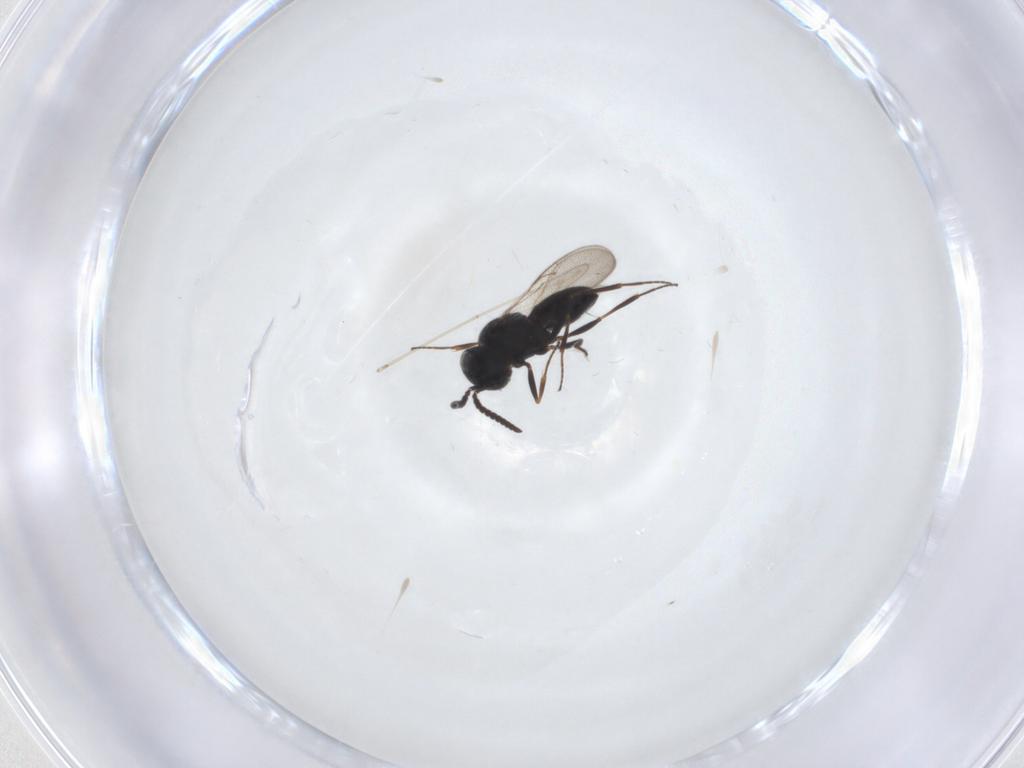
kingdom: Animalia
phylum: Arthropoda
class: Insecta
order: Hymenoptera
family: Scelionidae
